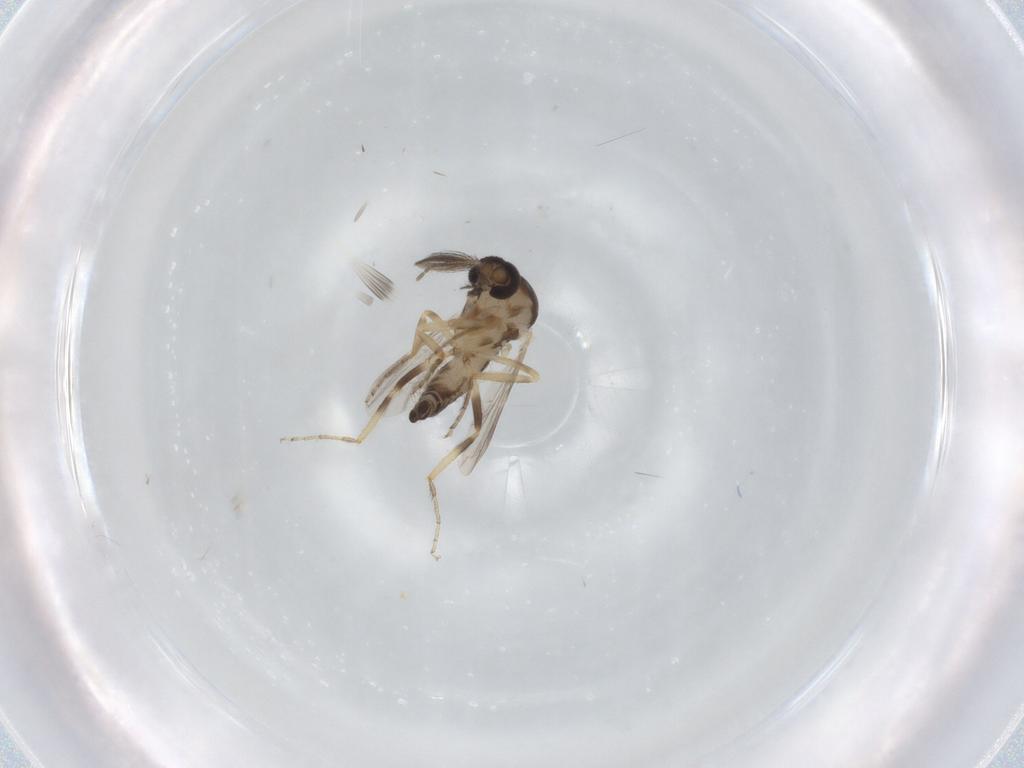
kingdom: Animalia
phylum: Arthropoda
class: Insecta
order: Diptera
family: Ceratopogonidae
